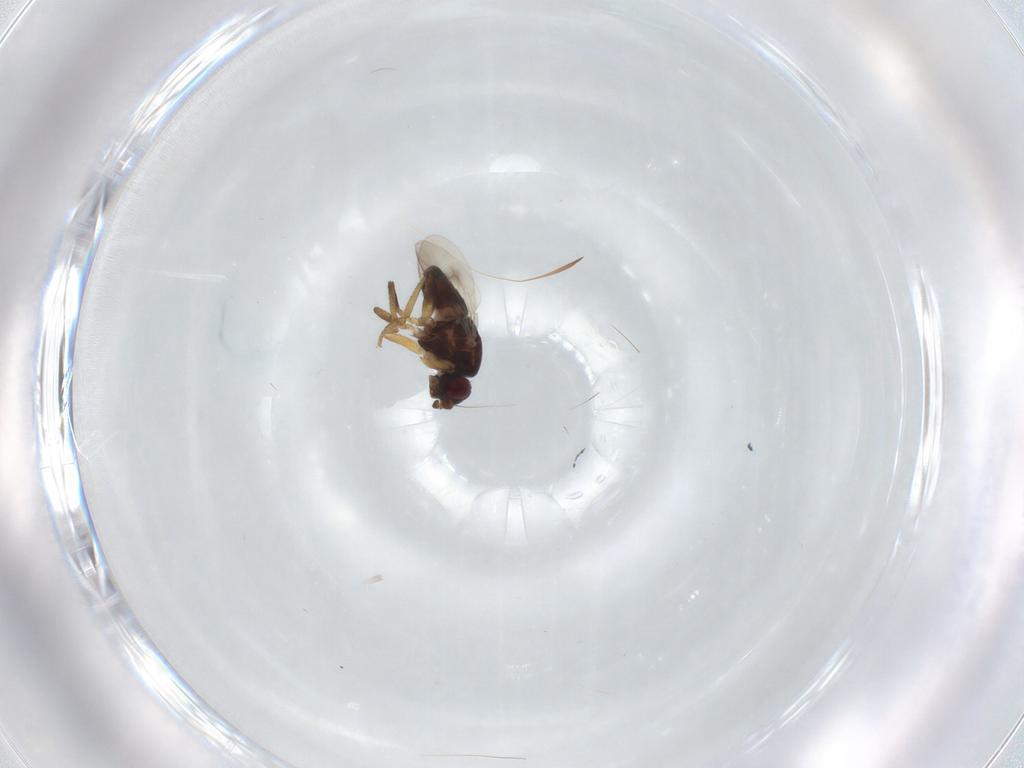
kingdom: Animalia
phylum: Arthropoda
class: Insecta
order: Diptera
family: Sphaeroceridae
